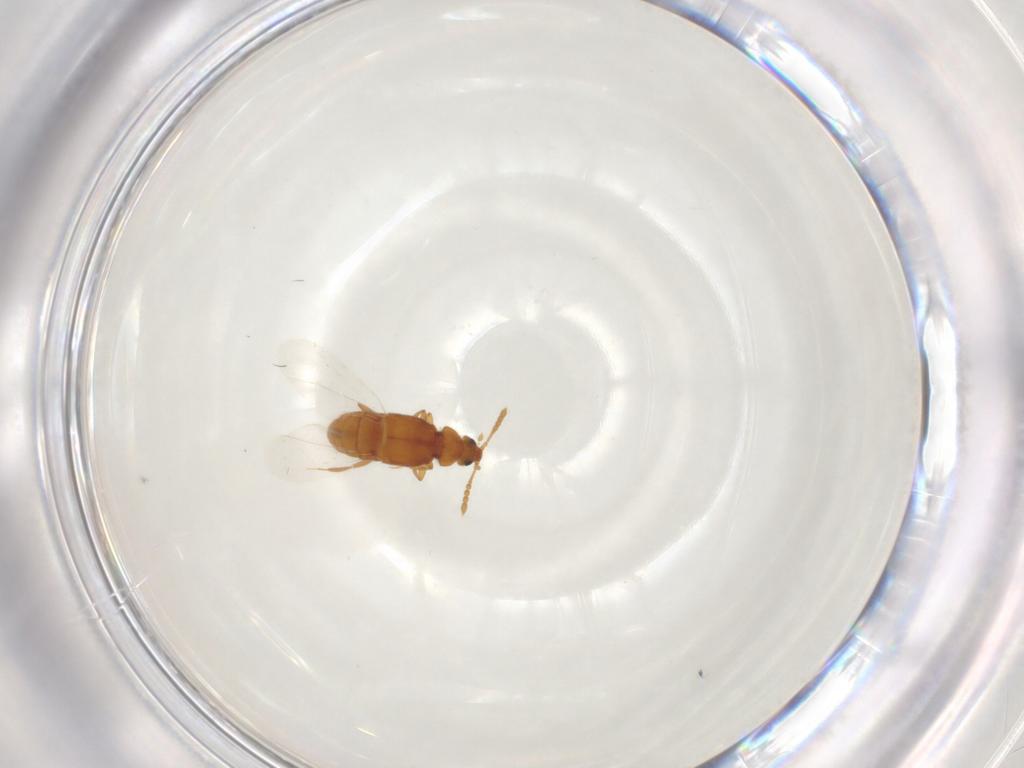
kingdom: Animalia
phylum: Arthropoda
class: Insecta
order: Coleoptera
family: Staphylinidae
